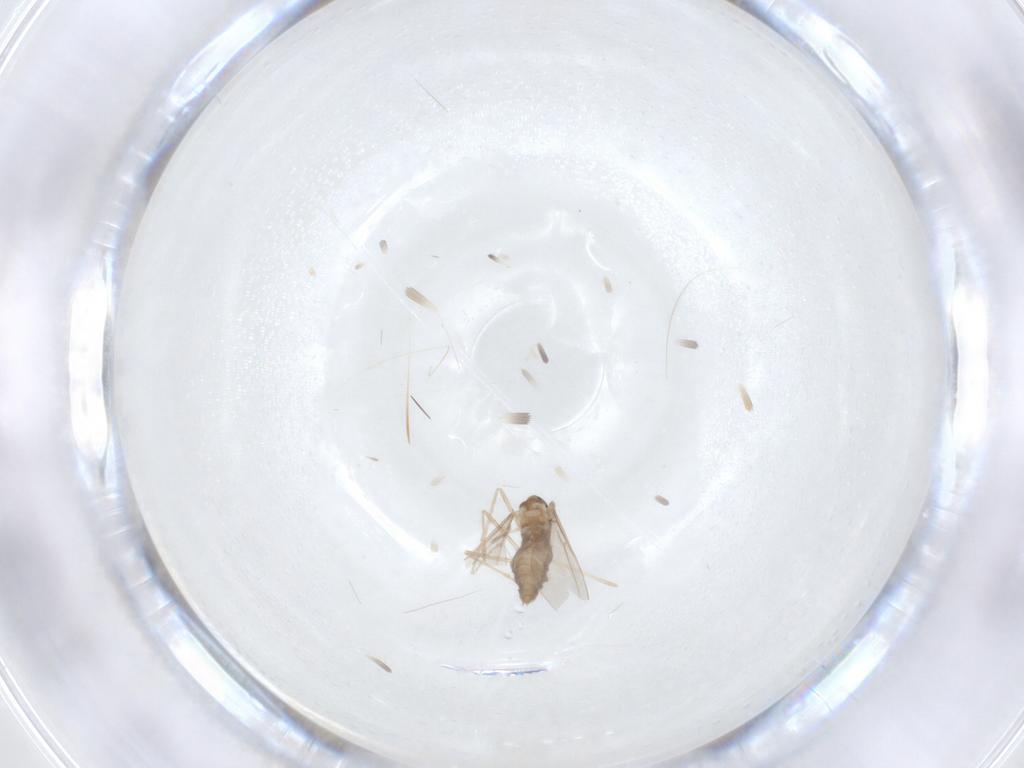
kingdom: Animalia
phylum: Arthropoda
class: Insecta
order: Diptera
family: Cecidomyiidae
